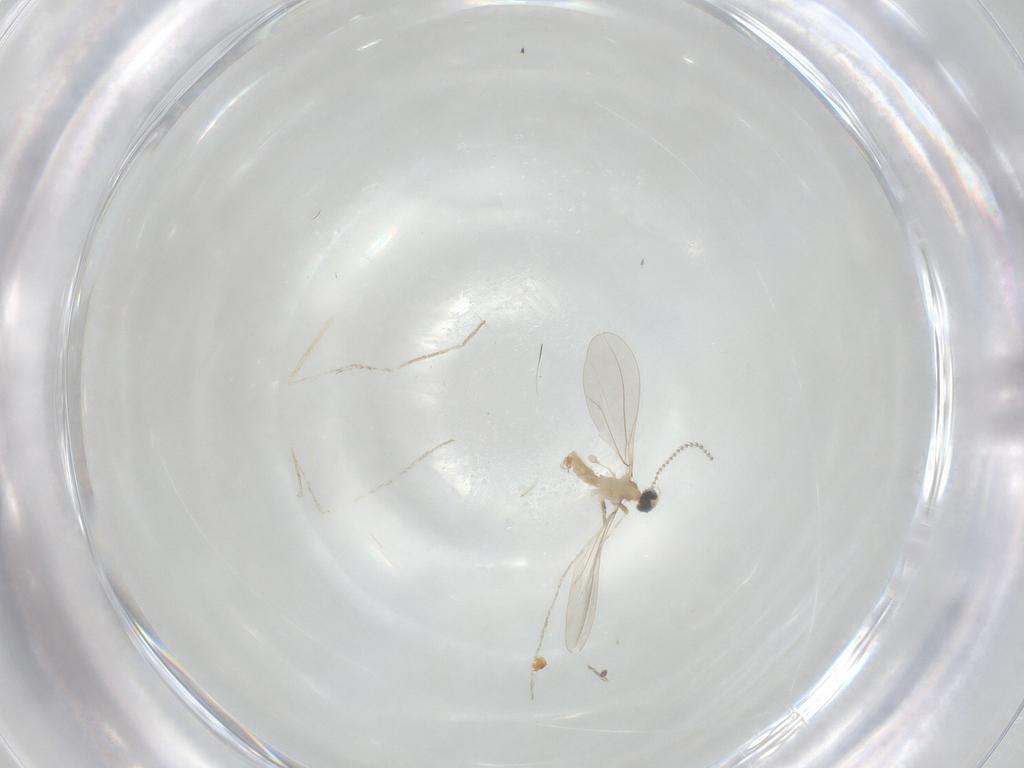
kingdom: Animalia
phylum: Arthropoda
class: Insecta
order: Diptera
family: Cecidomyiidae
